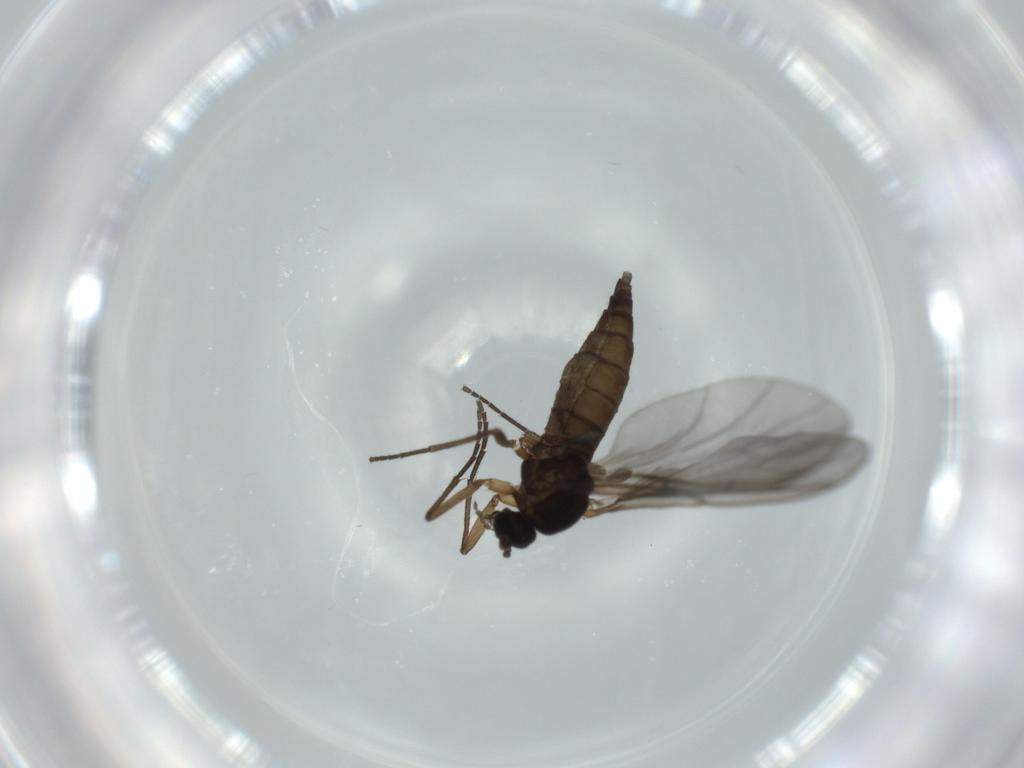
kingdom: Animalia
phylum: Arthropoda
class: Insecta
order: Diptera
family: Sciaridae
